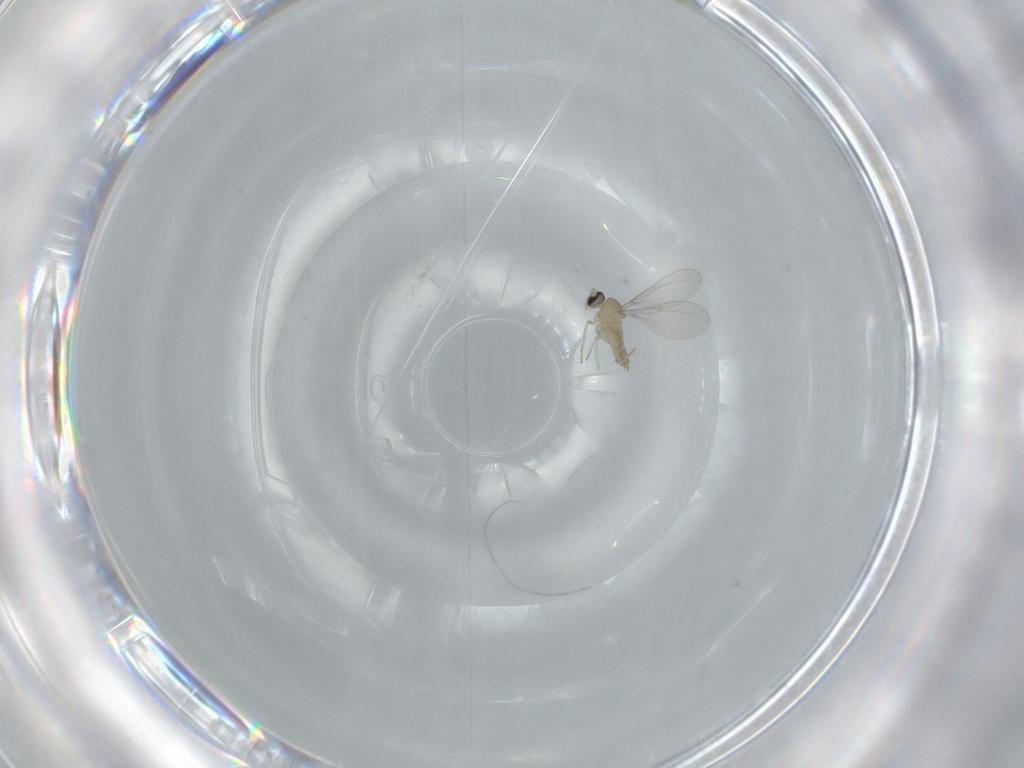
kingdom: Animalia
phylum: Arthropoda
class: Insecta
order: Diptera
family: Cecidomyiidae
